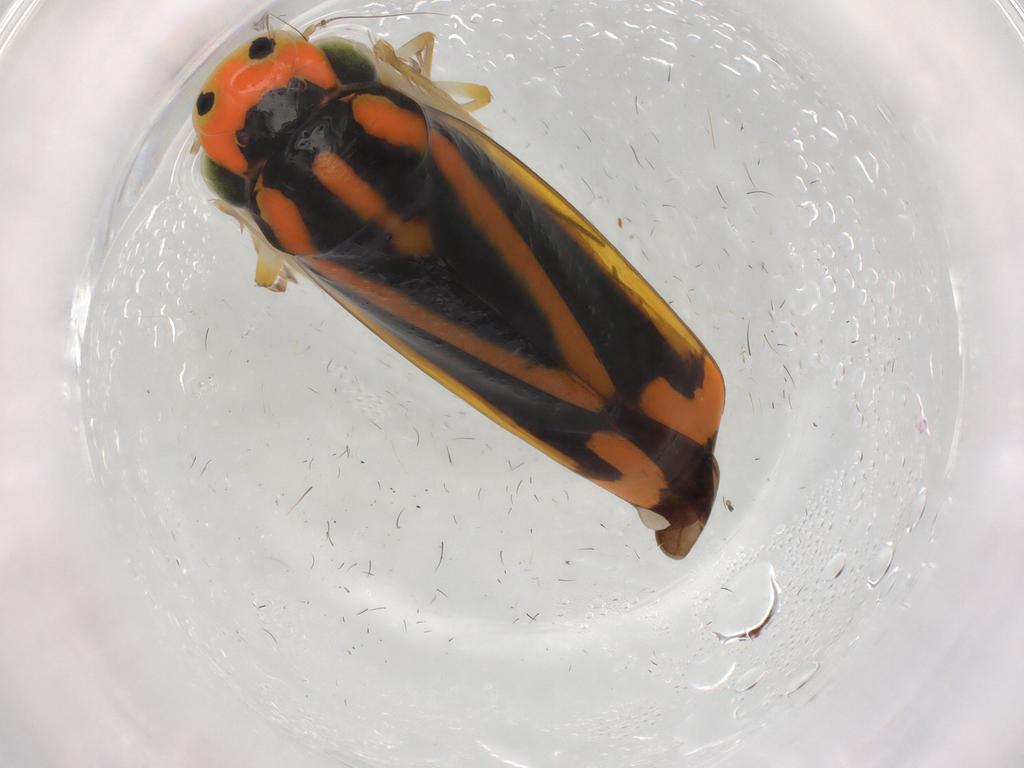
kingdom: Animalia
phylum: Arthropoda
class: Insecta
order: Hemiptera
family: Cicadellidae
